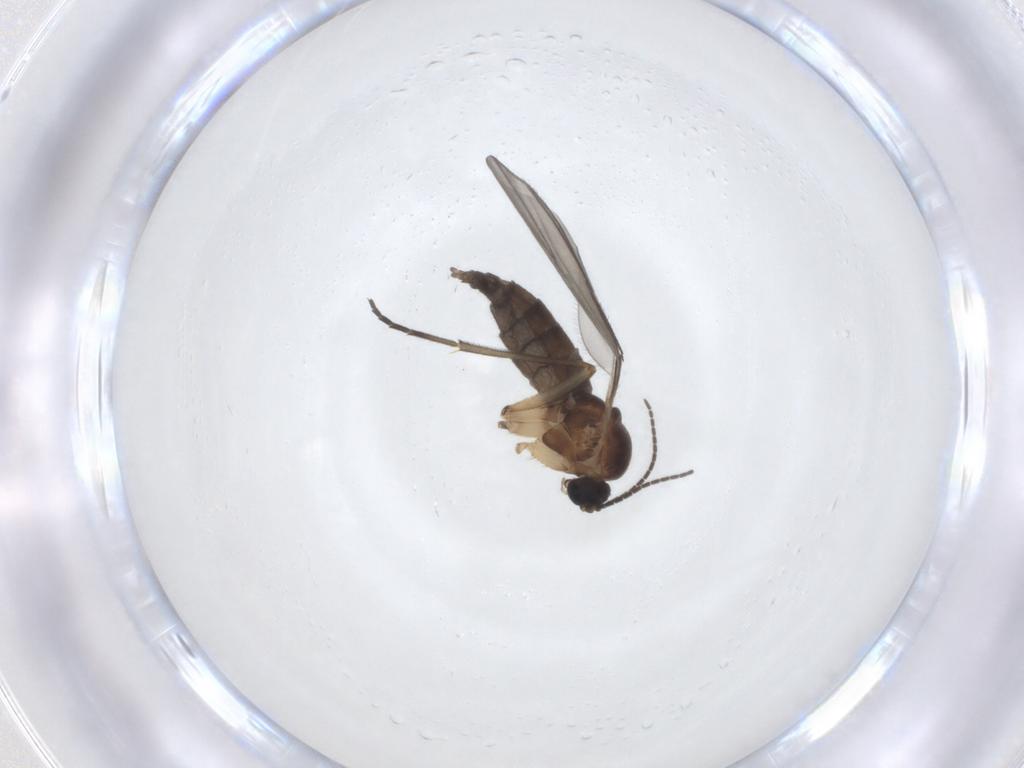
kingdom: Animalia
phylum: Arthropoda
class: Insecta
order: Diptera
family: Sciaridae
